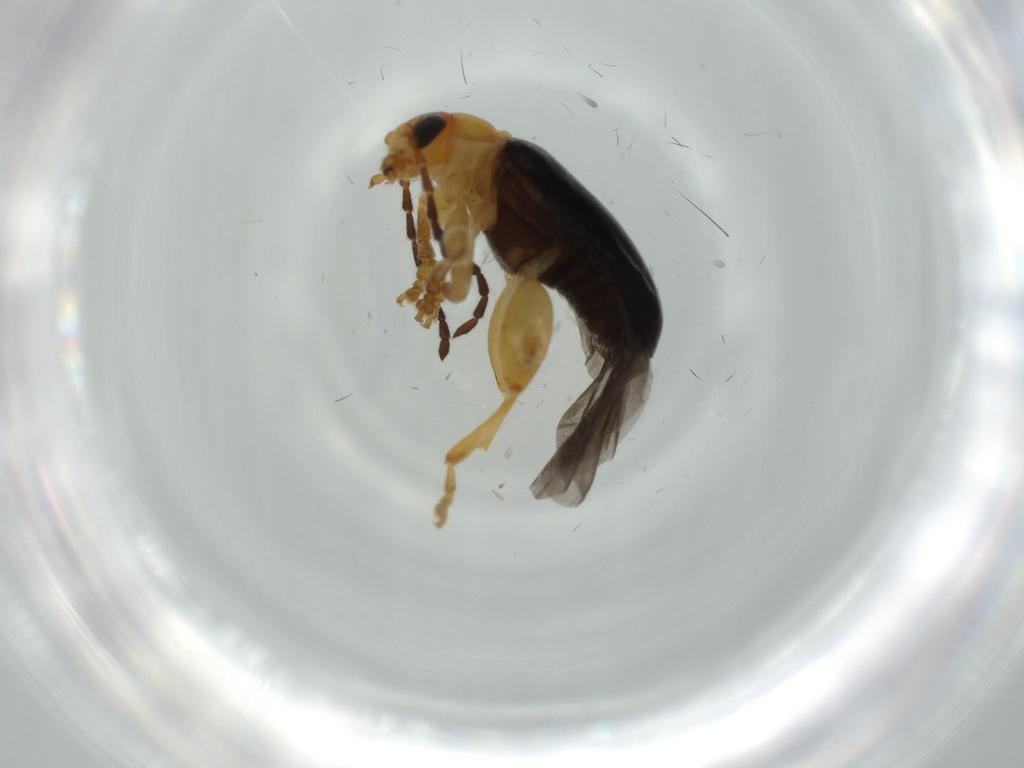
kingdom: Animalia
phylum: Arthropoda
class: Insecta
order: Coleoptera
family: Chrysomelidae
